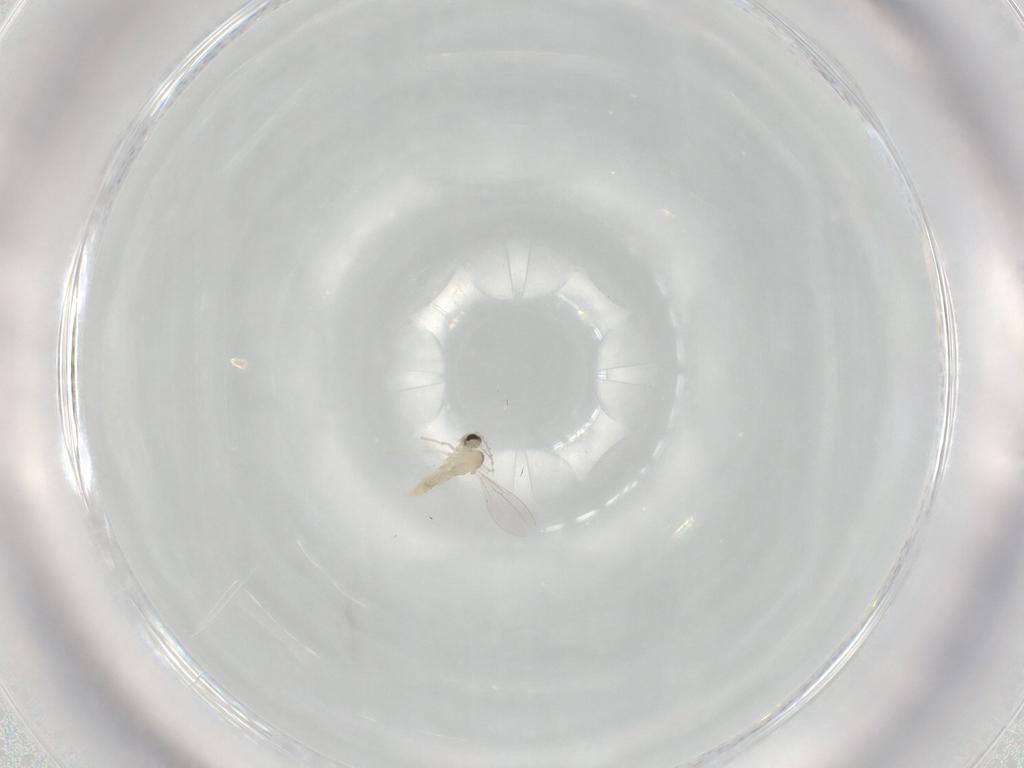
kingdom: Animalia
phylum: Arthropoda
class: Insecta
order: Diptera
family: Cecidomyiidae
